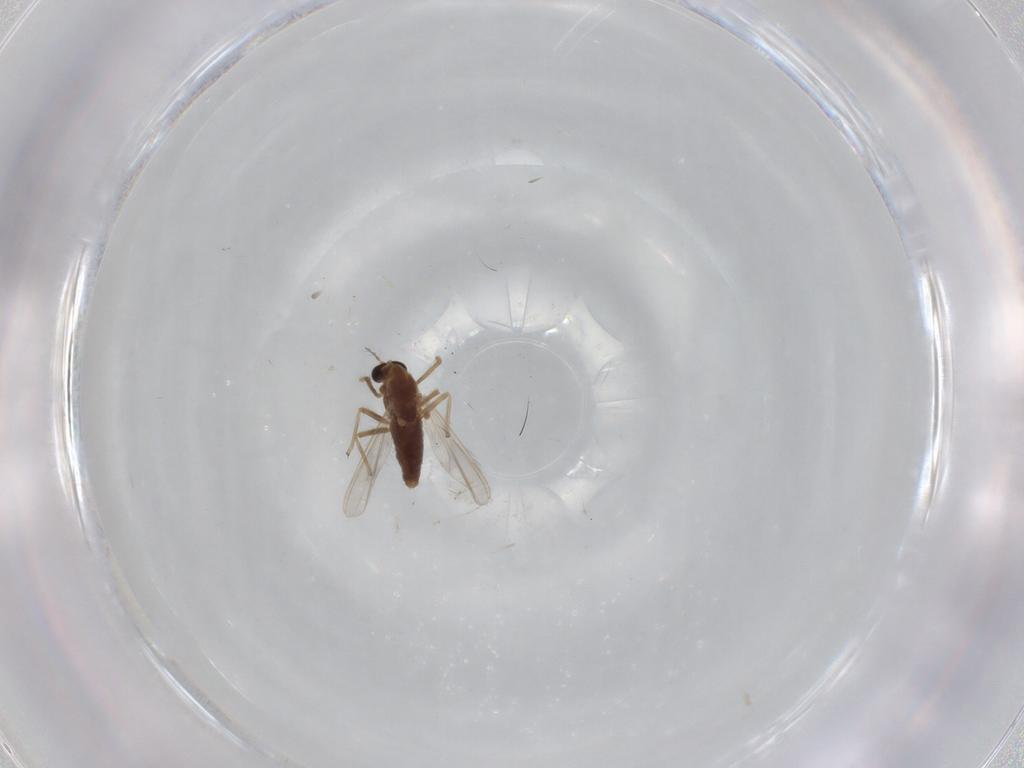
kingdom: Animalia
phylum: Arthropoda
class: Insecta
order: Diptera
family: Chironomidae
